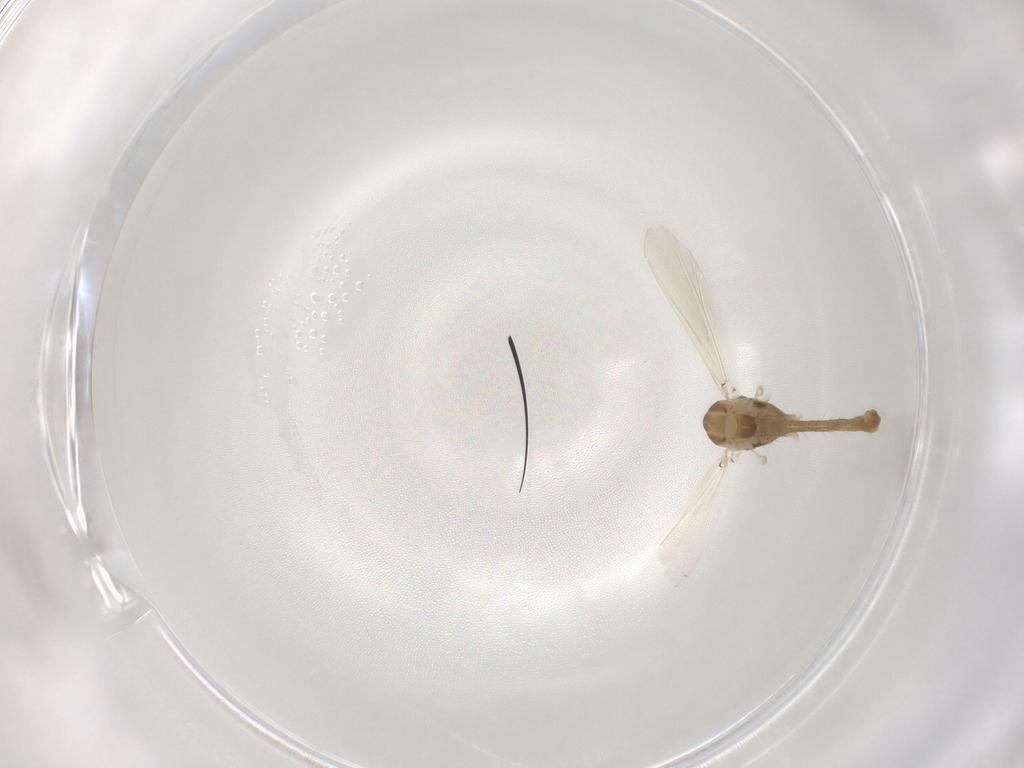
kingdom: Animalia
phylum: Arthropoda
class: Insecta
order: Diptera
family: Chironomidae
